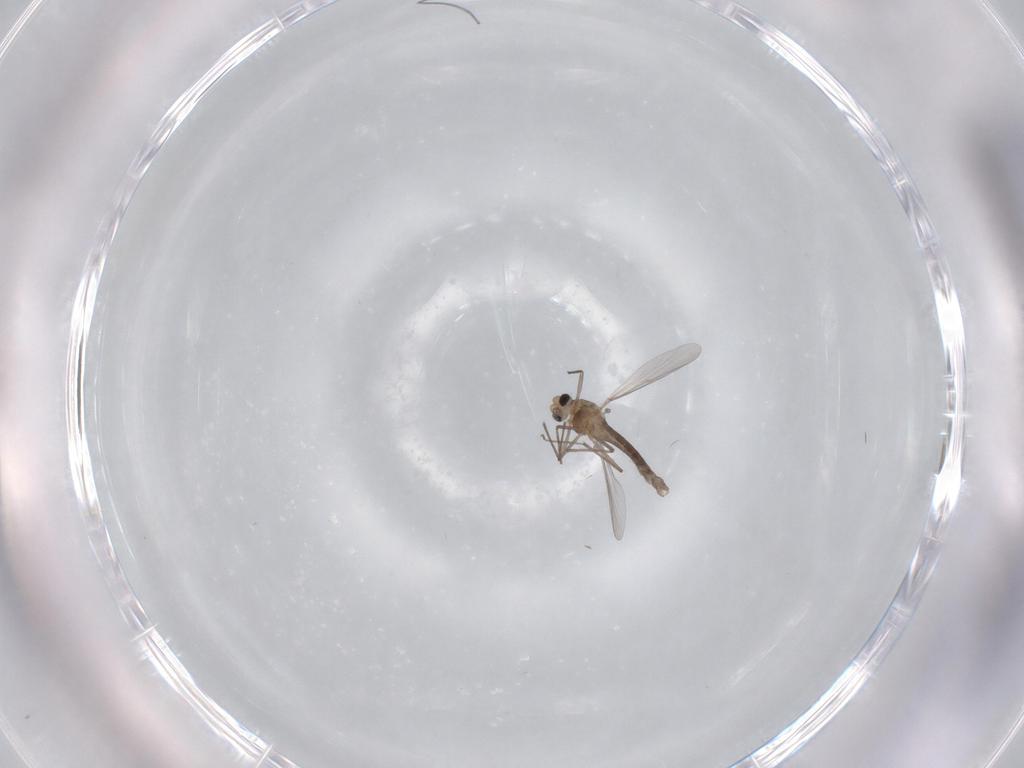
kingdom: Animalia
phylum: Arthropoda
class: Insecta
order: Diptera
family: Chironomidae
